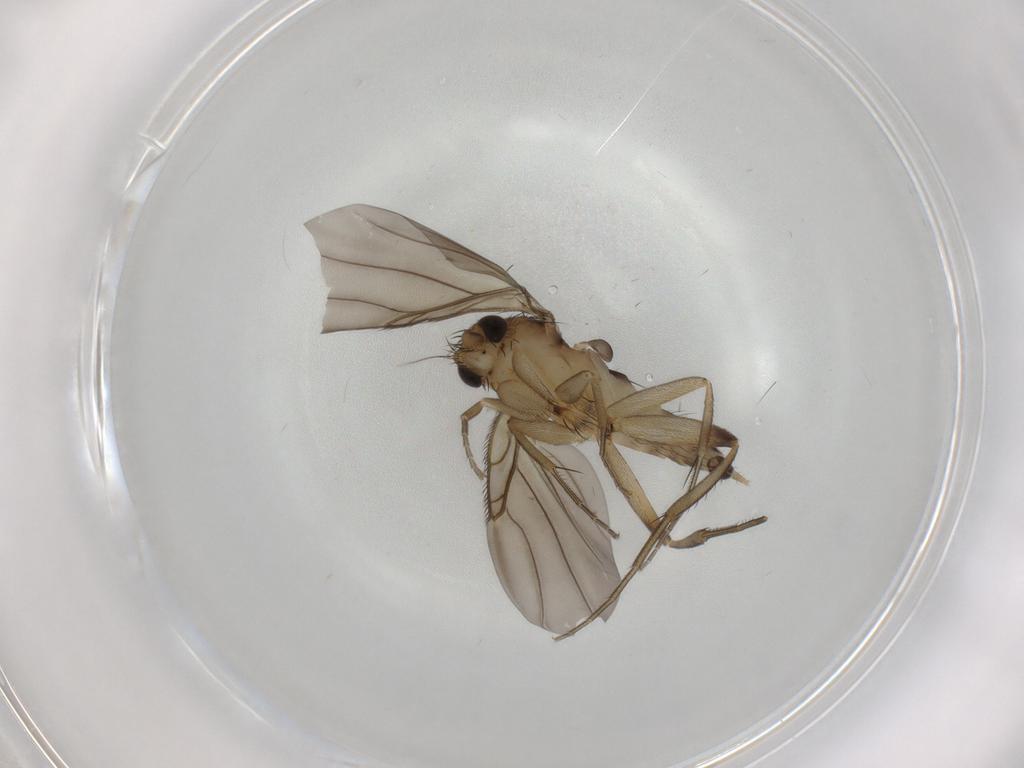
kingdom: Animalia
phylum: Arthropoda
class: Insecta
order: Diptera
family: Phoridae
